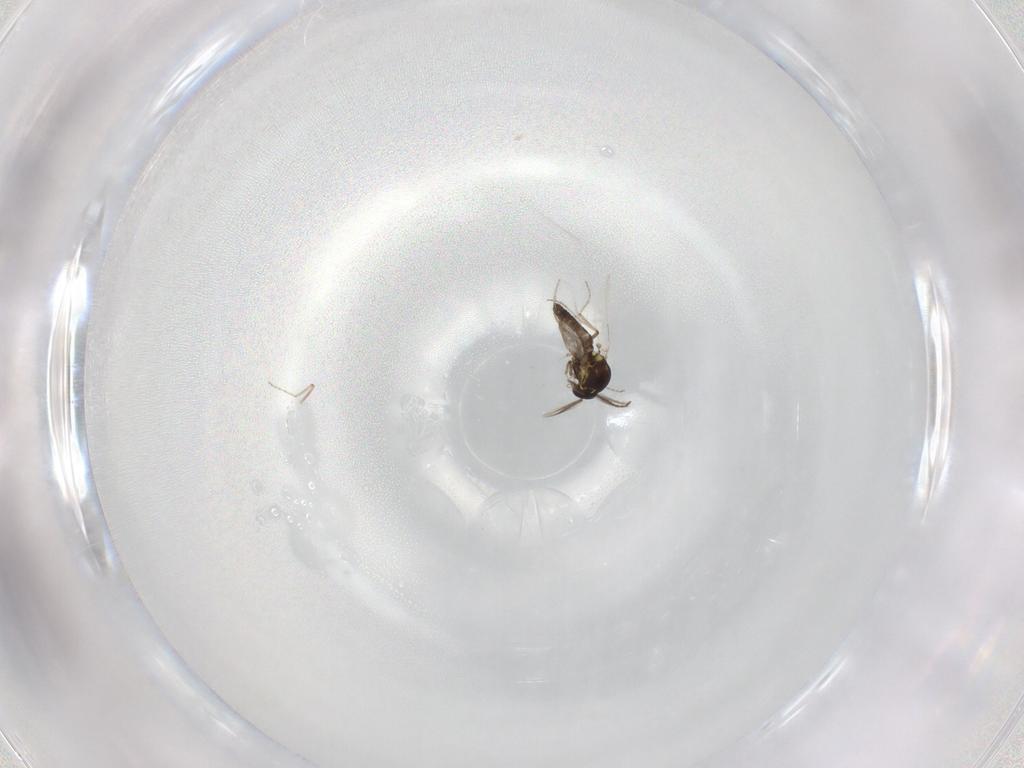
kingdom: Animalia
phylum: Arthropoda
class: Insecta
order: Diptera
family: Ceratopogonidae
